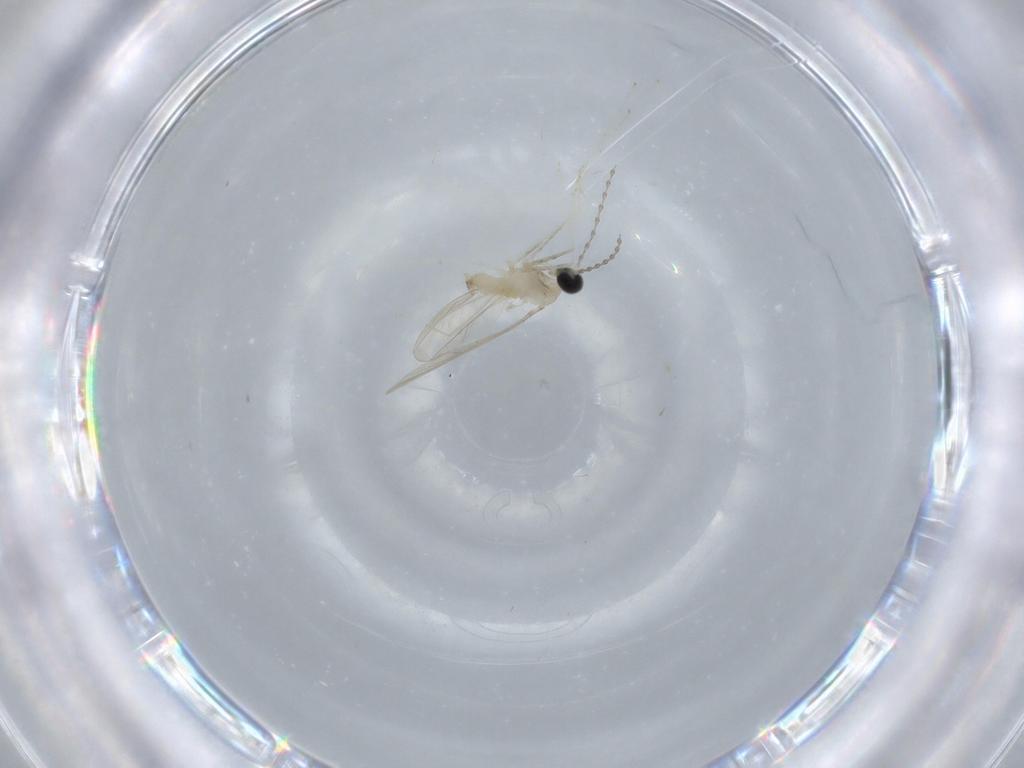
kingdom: Animalia
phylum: Arthropoda
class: Insecta
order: Diptera
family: Cecidomyiidae
